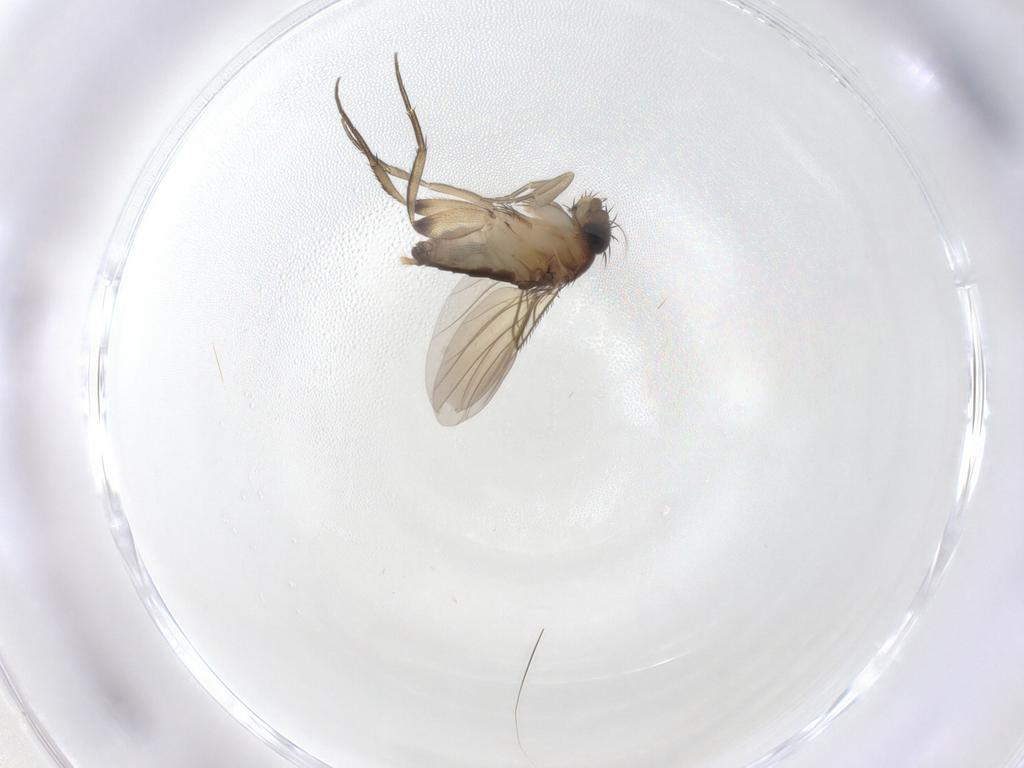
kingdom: Animalia
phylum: Arthropoda
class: Insecta
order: Diptera
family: Phoridae
